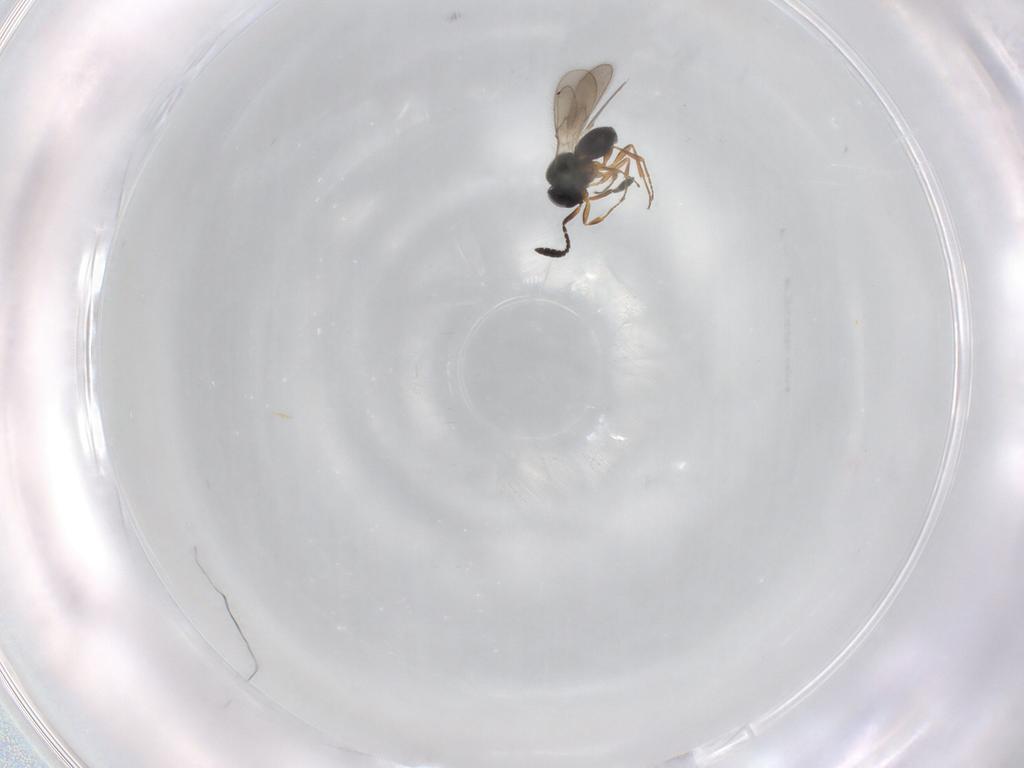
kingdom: Animalia
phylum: Arthropoda
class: Insecta
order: Hymenoptera
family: Scelionidae
